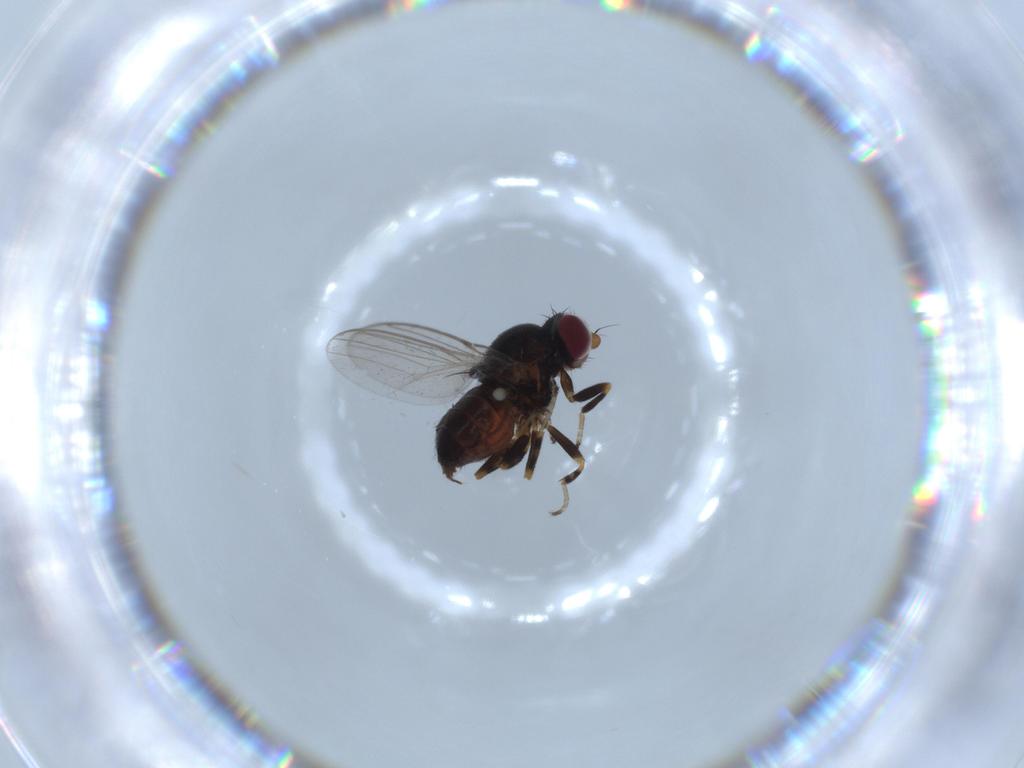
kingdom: Animalia
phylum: Arthropoda
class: Insecta
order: Diptera
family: Chloropidae
